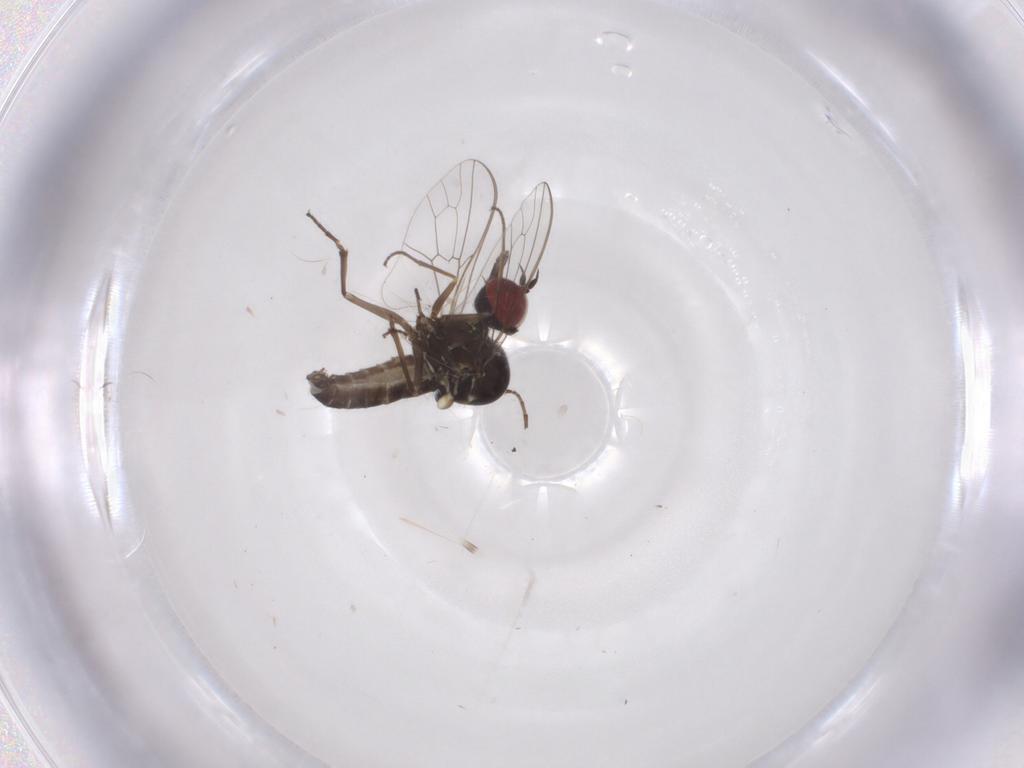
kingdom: Animalia
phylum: Arthropoda
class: Insecta
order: Diptera
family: Bombyliidae
